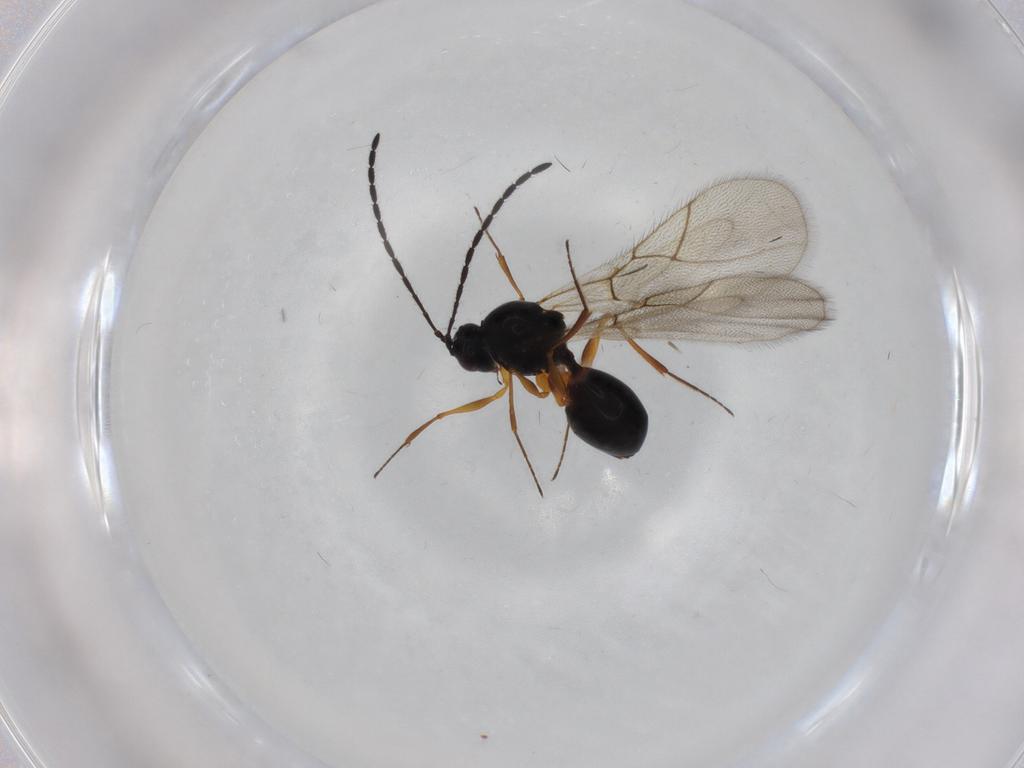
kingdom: Animalia
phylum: Arthropoda
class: Insecta
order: Hymenoptera
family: Figitidae
